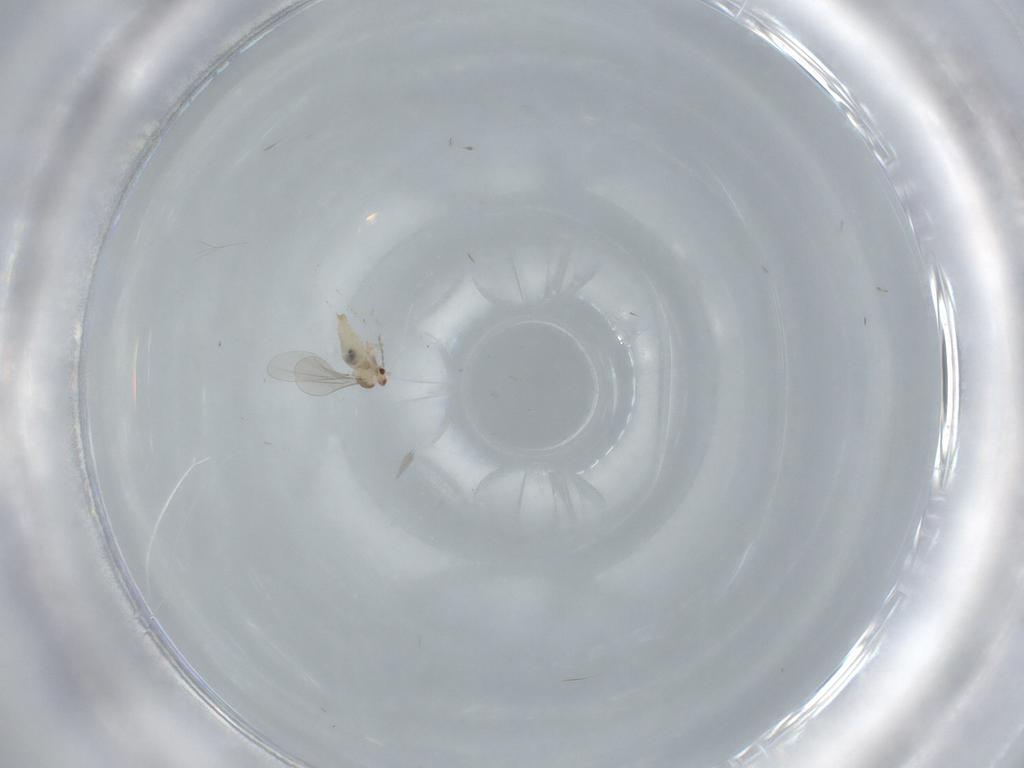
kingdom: Animalia
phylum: Arthropoda
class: Insecta
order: Diptera
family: Cecidomyiidae
